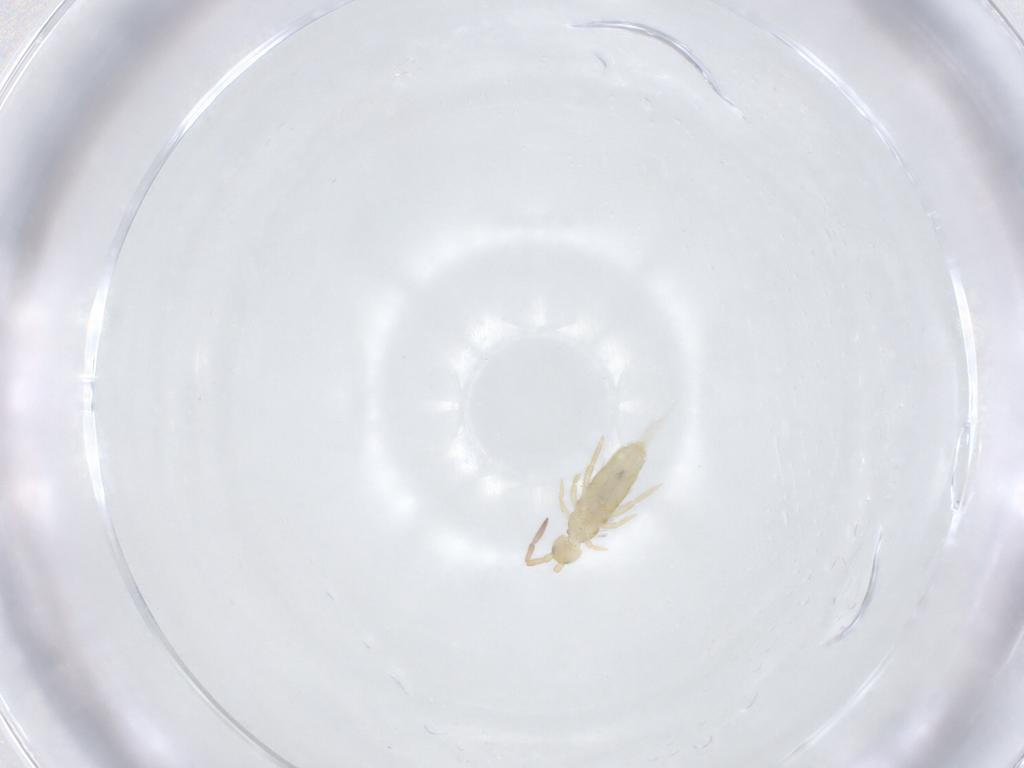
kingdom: Animalia
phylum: Arthropoda
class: Collembola
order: Entomobryomorpha
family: Entomobryidae
